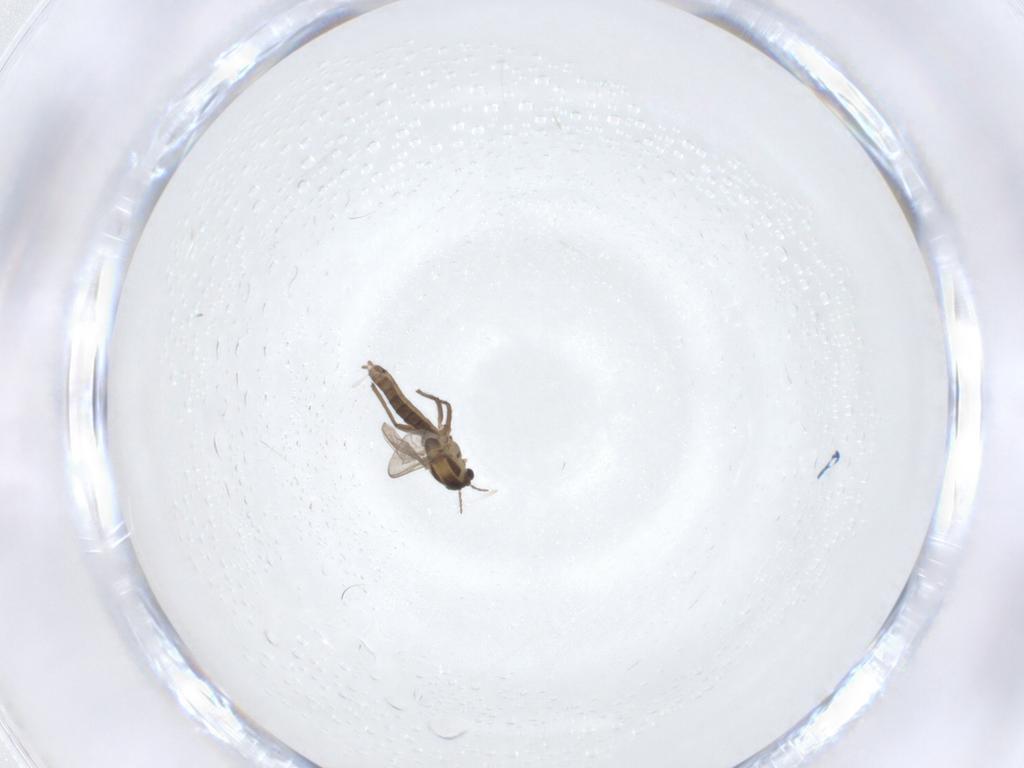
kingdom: Animalia
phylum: Arthropoda
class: Insecta
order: Diptera
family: Chironomidae
